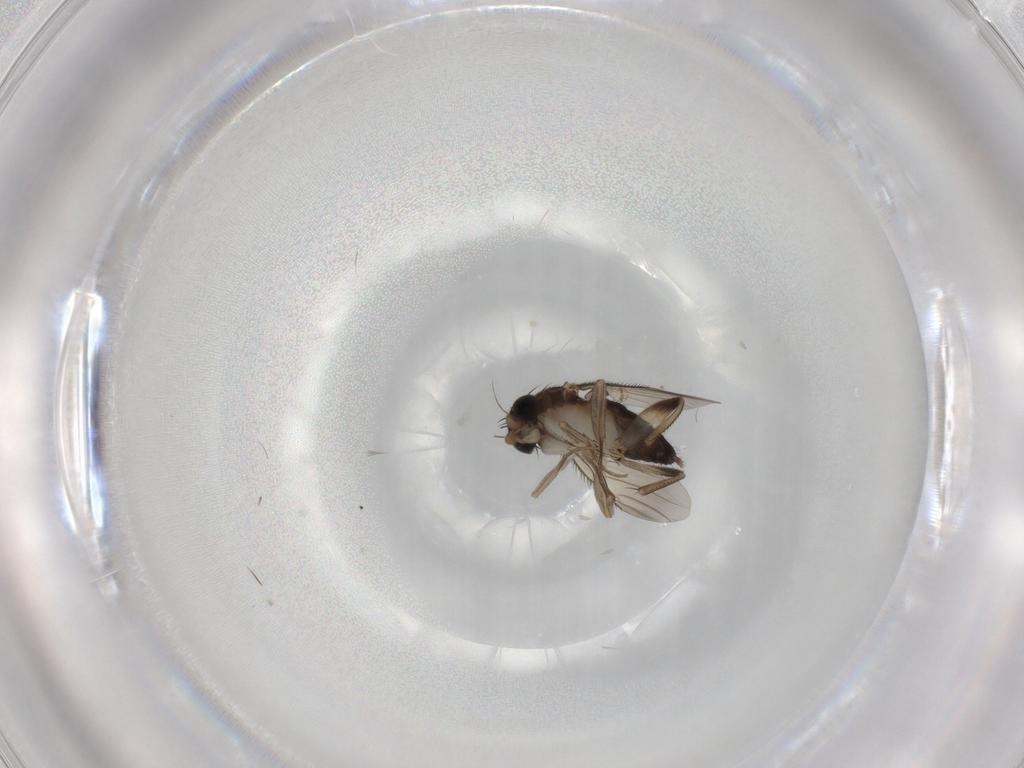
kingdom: Animalia
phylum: Arthropoda
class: Insecta
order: Diptera
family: Phoridae
